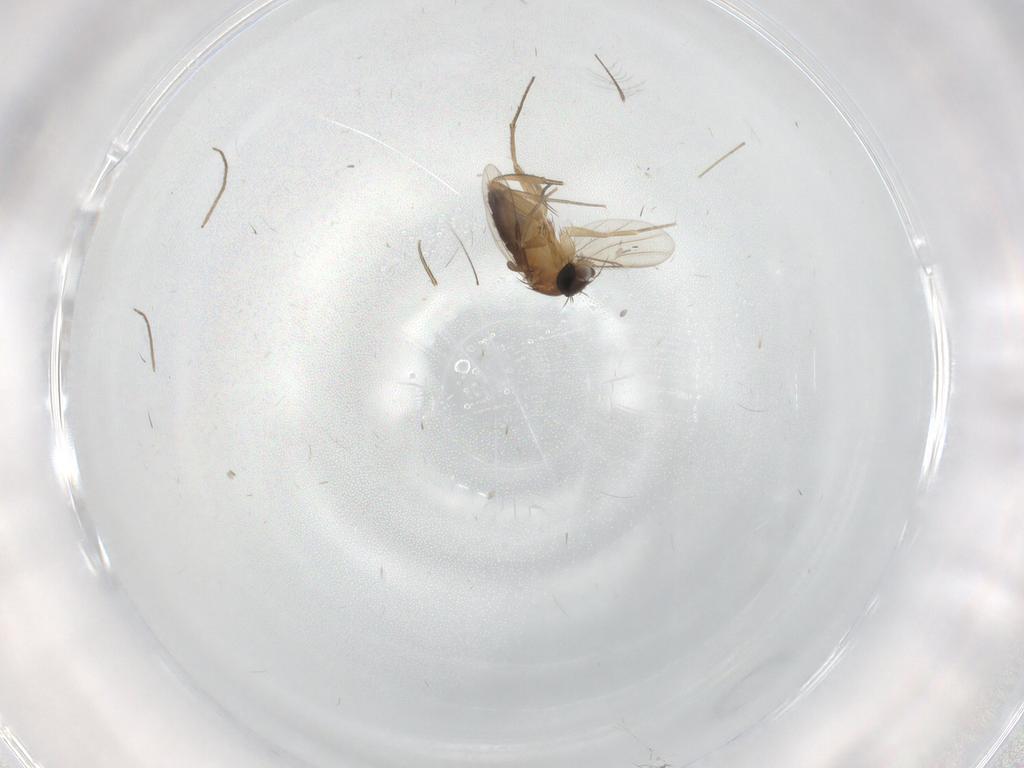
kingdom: Animalia
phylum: Arthropoda
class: Insecta
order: Diptera
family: Phoridae
